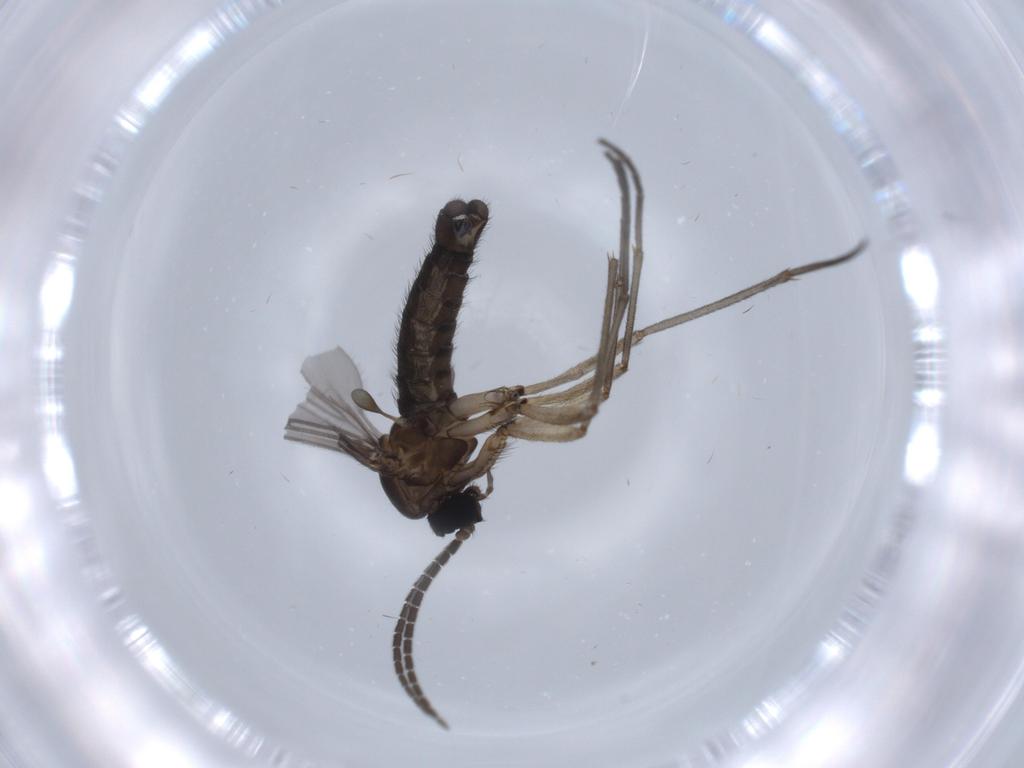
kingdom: Animalia
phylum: Arthropoda
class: Insecta
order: Diptera
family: Sciaridae
